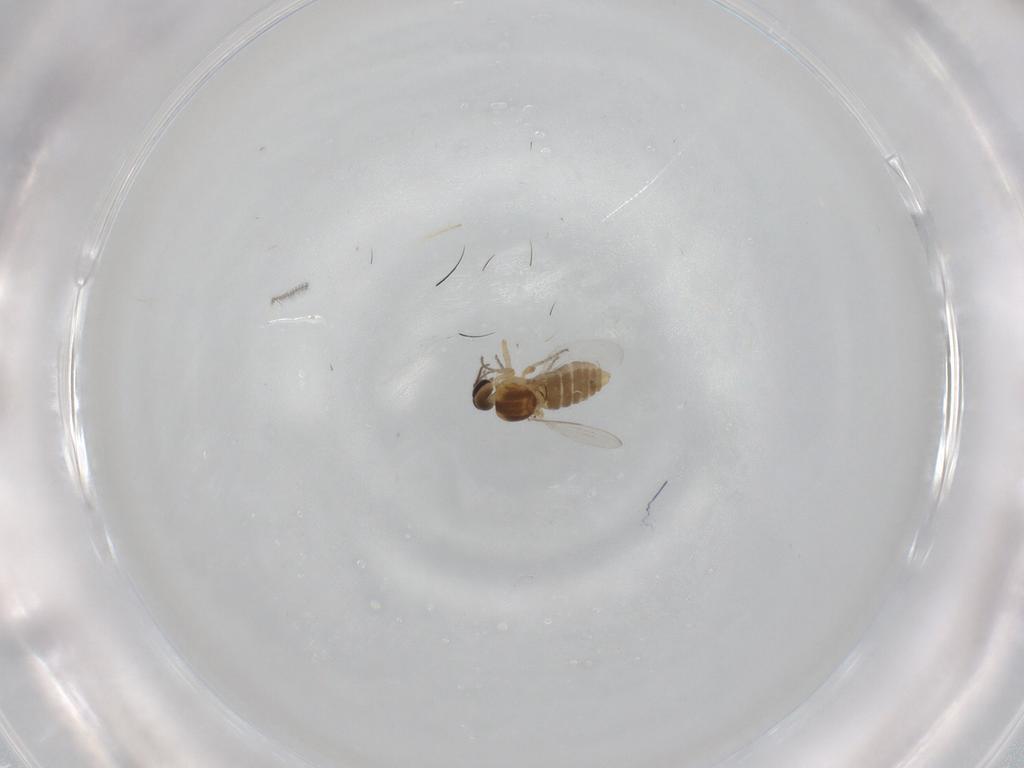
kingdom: Animalia
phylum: Arthropoda
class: Insecta
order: Diptera
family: Ceratopogonidae
